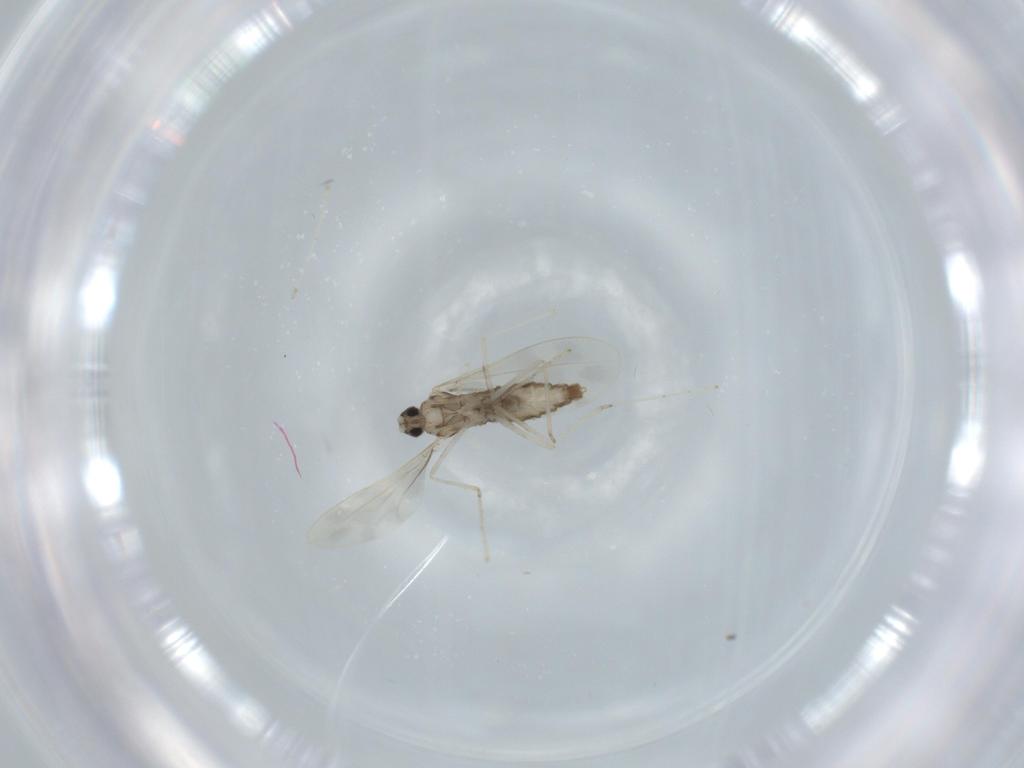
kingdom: Animalia
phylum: Arthropoda
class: Insecta
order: Diptera
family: Cecidomyiidae
